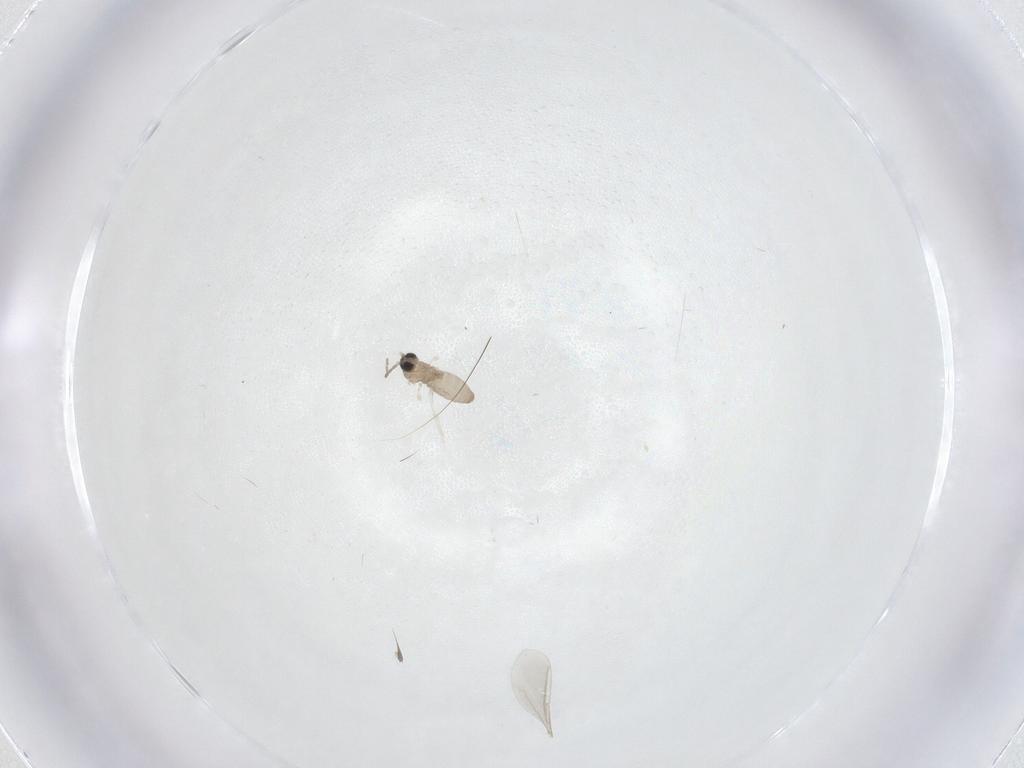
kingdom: Animalia
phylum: Arthropoda
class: Insecta
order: Diptera
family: Cecidomyiidae
